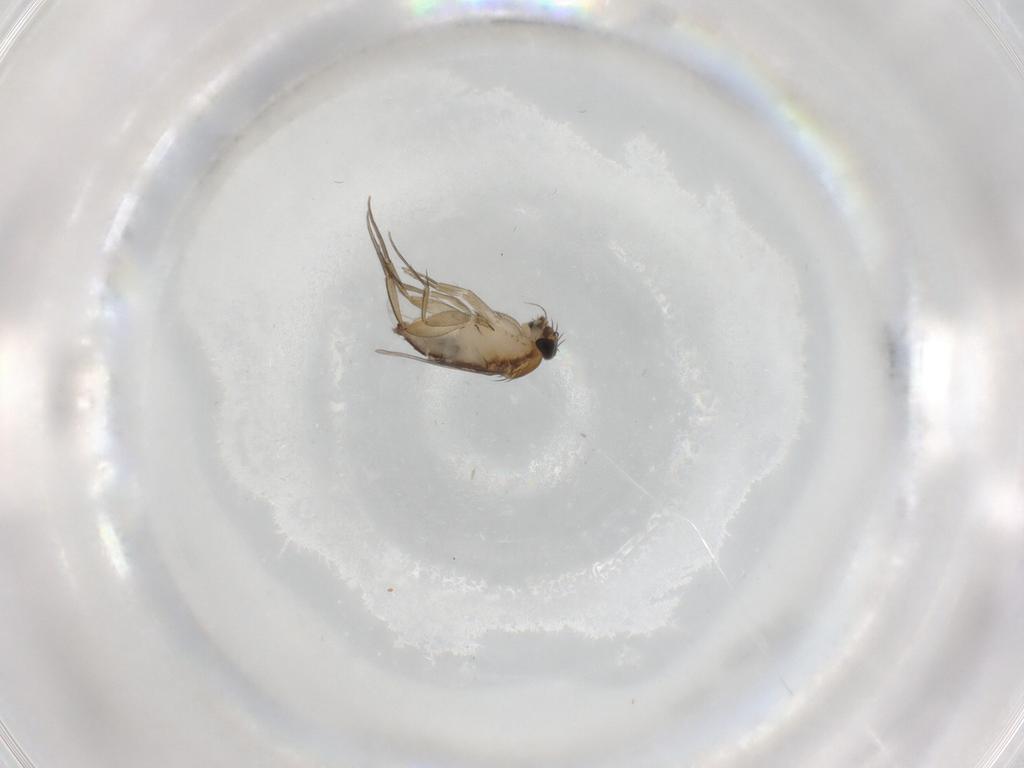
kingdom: Animalia
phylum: Arthropoda
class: Insecta
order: Diptera
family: Phoridae
